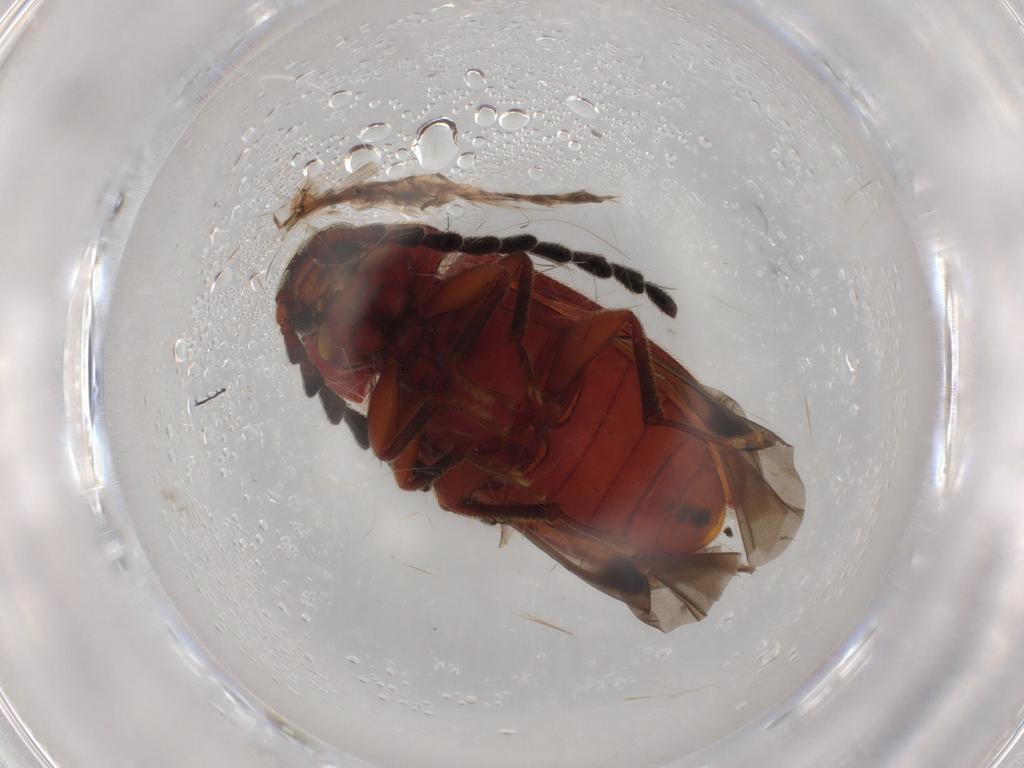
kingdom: Animalia
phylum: Arthropoda
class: Insecta
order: Coleoptera
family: Tenebrionidae
